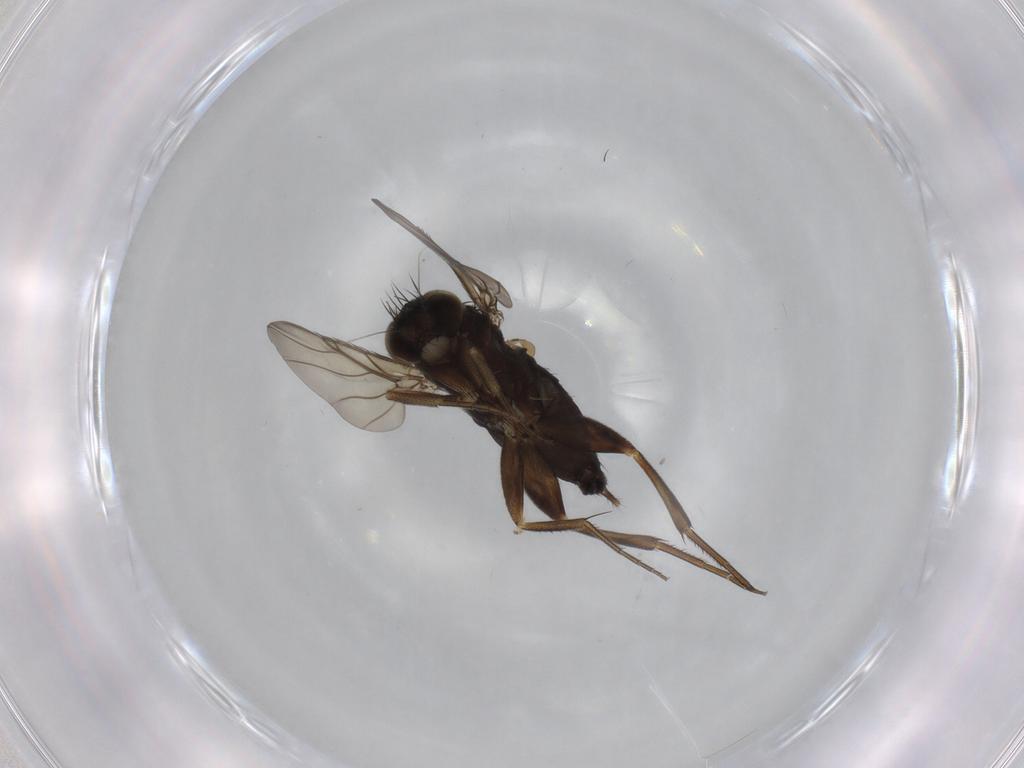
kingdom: Animalia
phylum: Arthropoda
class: Insecta
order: Diptera
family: Phoridae
